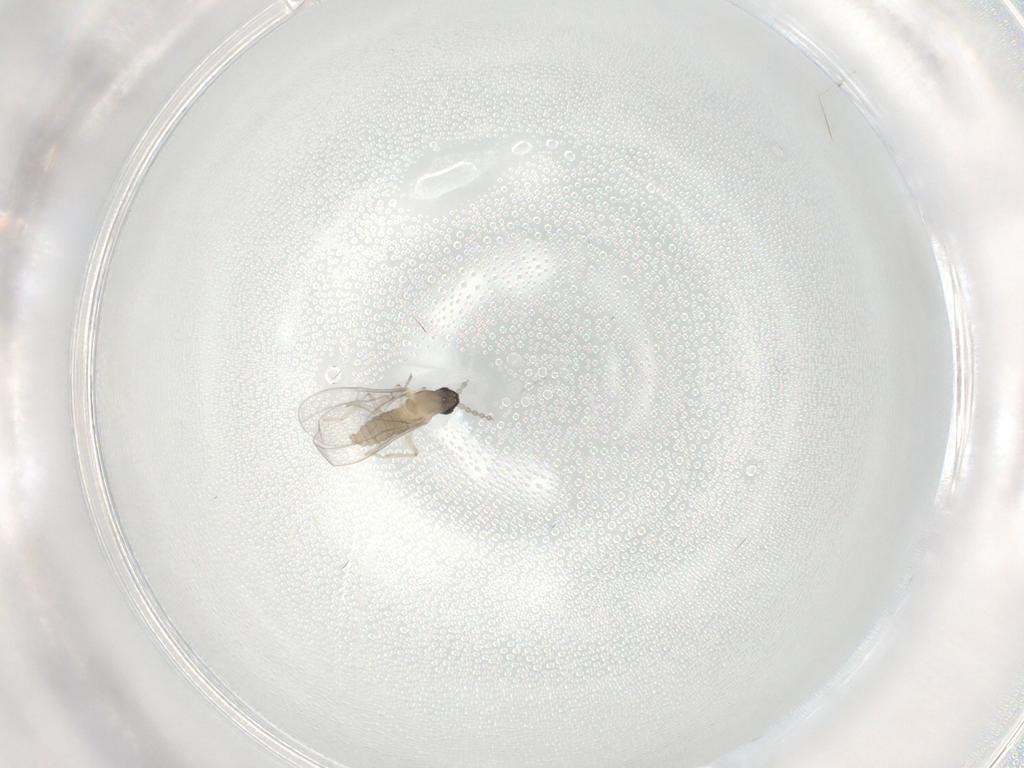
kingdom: Animalia
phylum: Arthropoda
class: Insecta
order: Diptera
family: Cecidomyiidae
